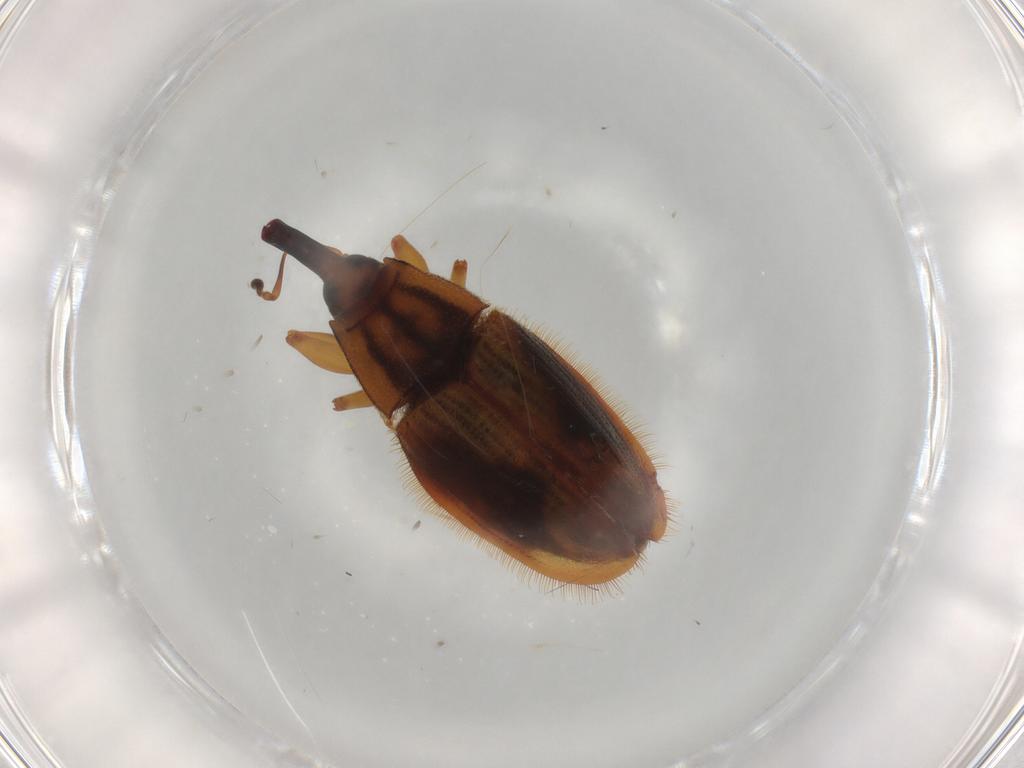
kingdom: Animalia
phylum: Arthropoda
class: Insecta
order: Coleoptera
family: Curculionidae
